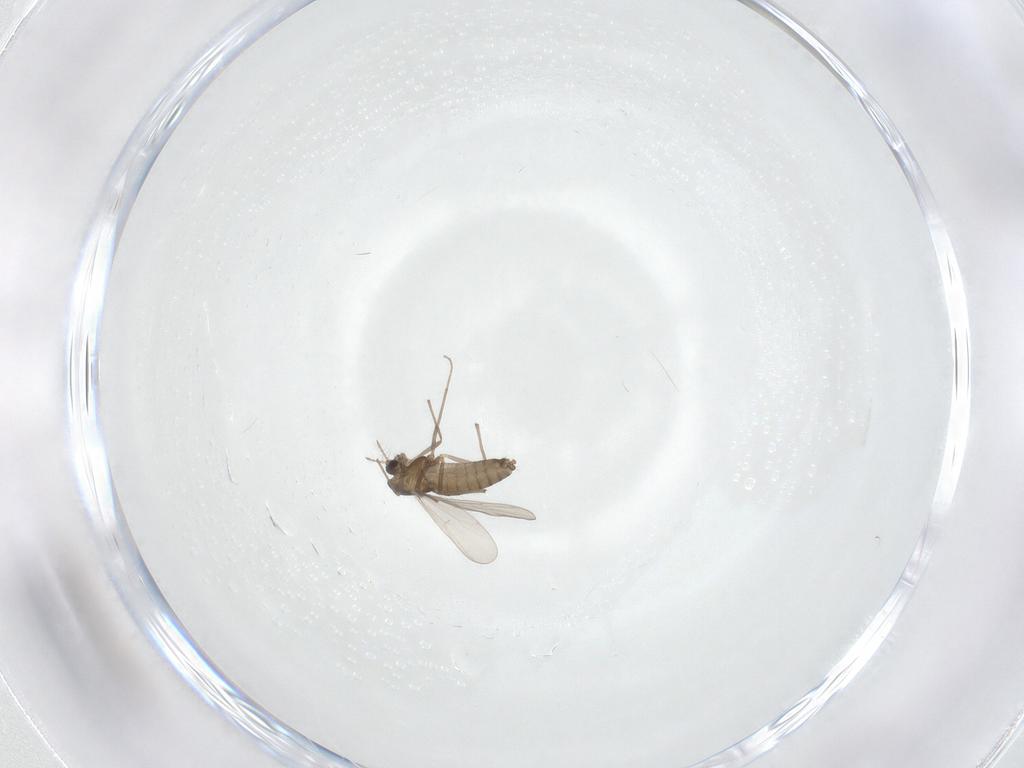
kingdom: Animalia
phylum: Arthropoda
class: Insecta
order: Diptera
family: Chironomidae
